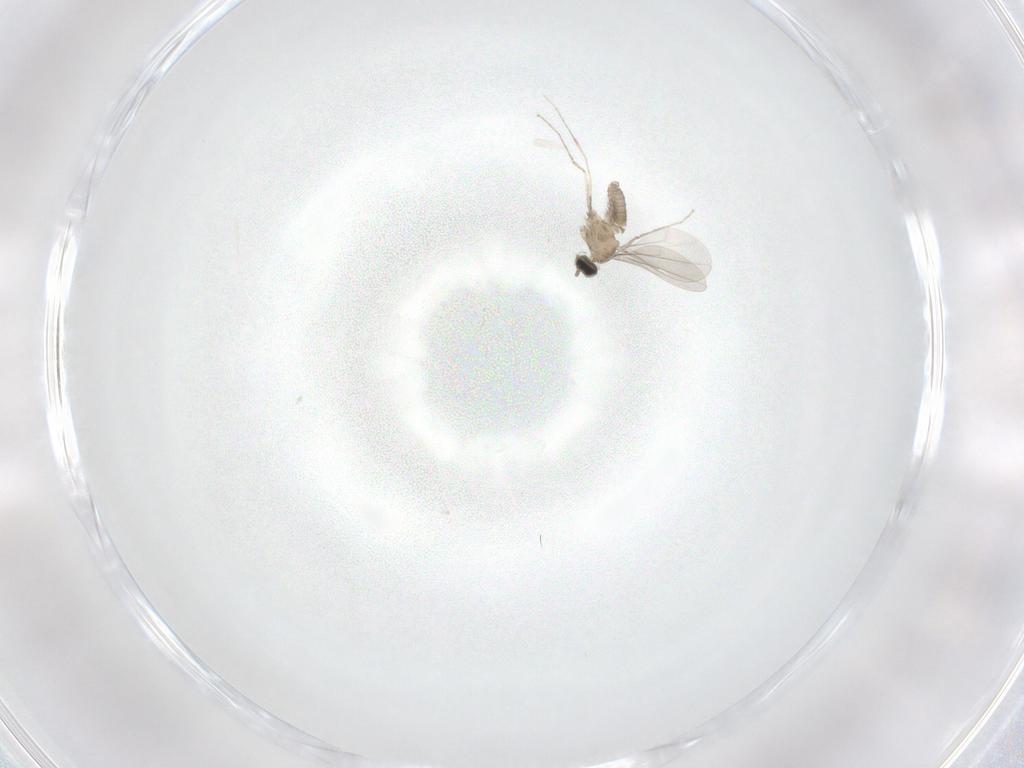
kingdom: Animalia
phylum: Arthropoda
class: Insecta
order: Diptera
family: Cecidomyiidae
